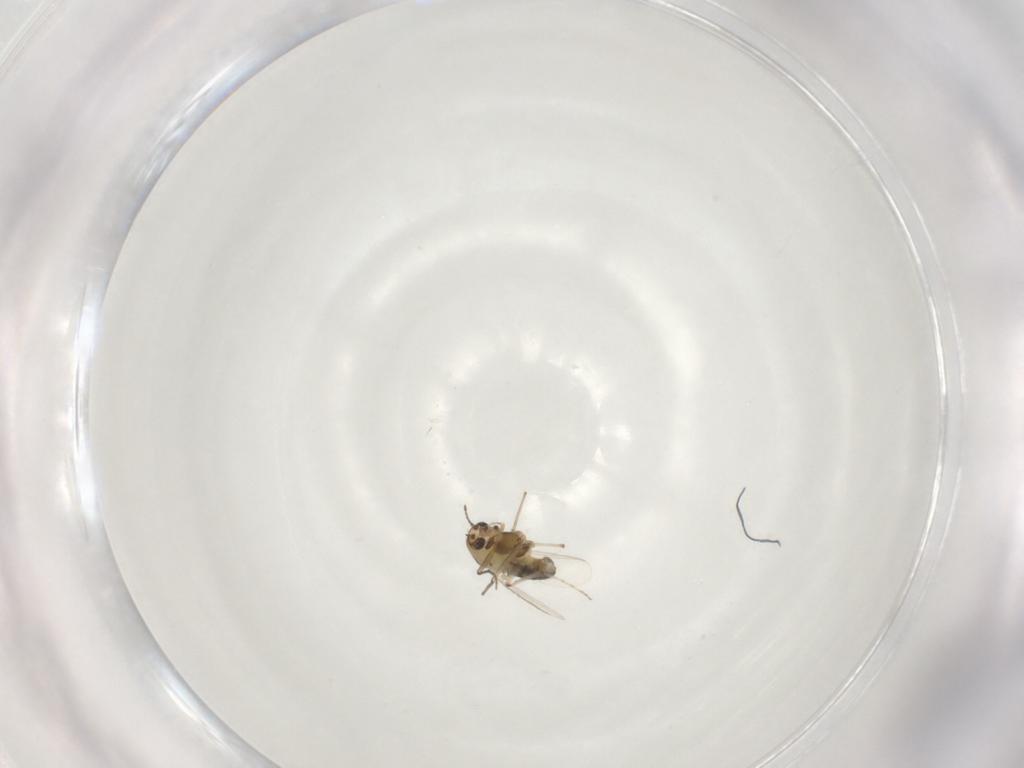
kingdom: Animalia
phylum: Arthropoda
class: Insecta
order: Diptera
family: Chironomidae
